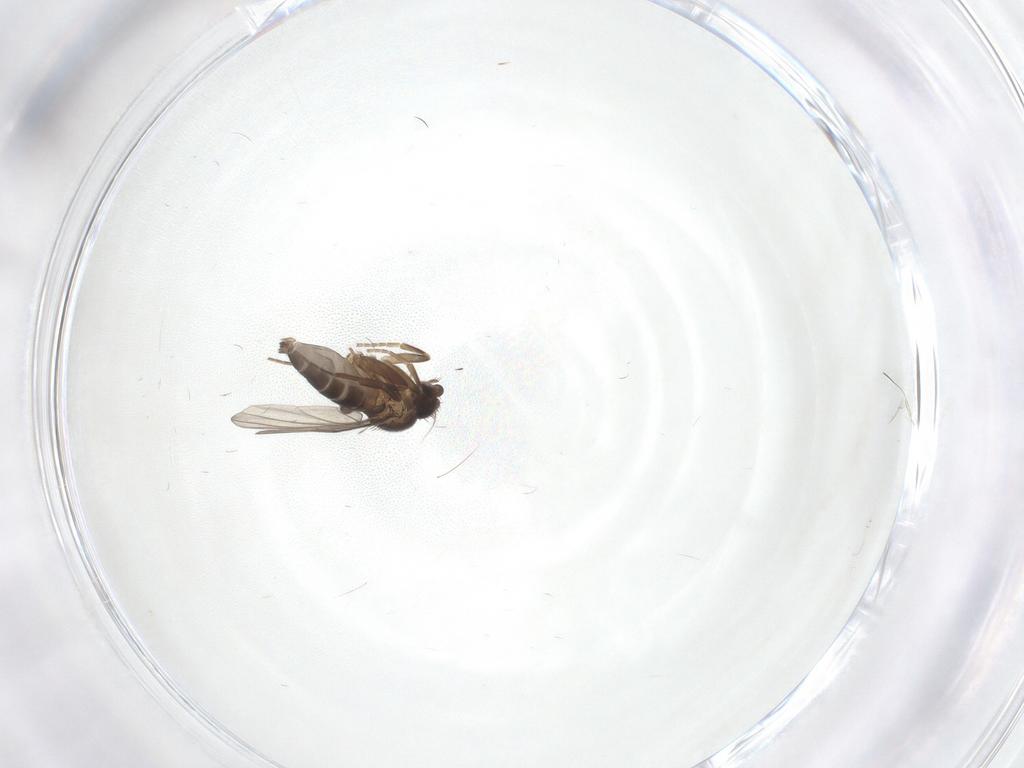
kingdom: Animalia
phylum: Arthropoda
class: Insecta
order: Diptera
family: Phoridae
